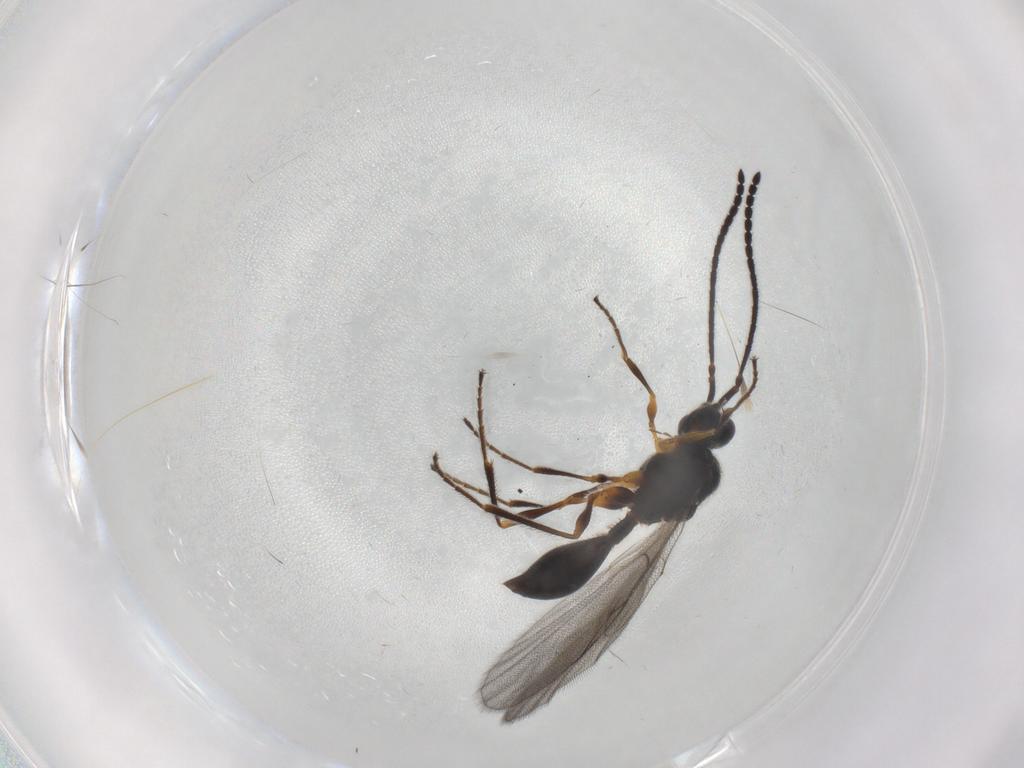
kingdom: Animalia
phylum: Arthropoda
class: Insecta
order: Hymenoptera
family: Diapriidae
